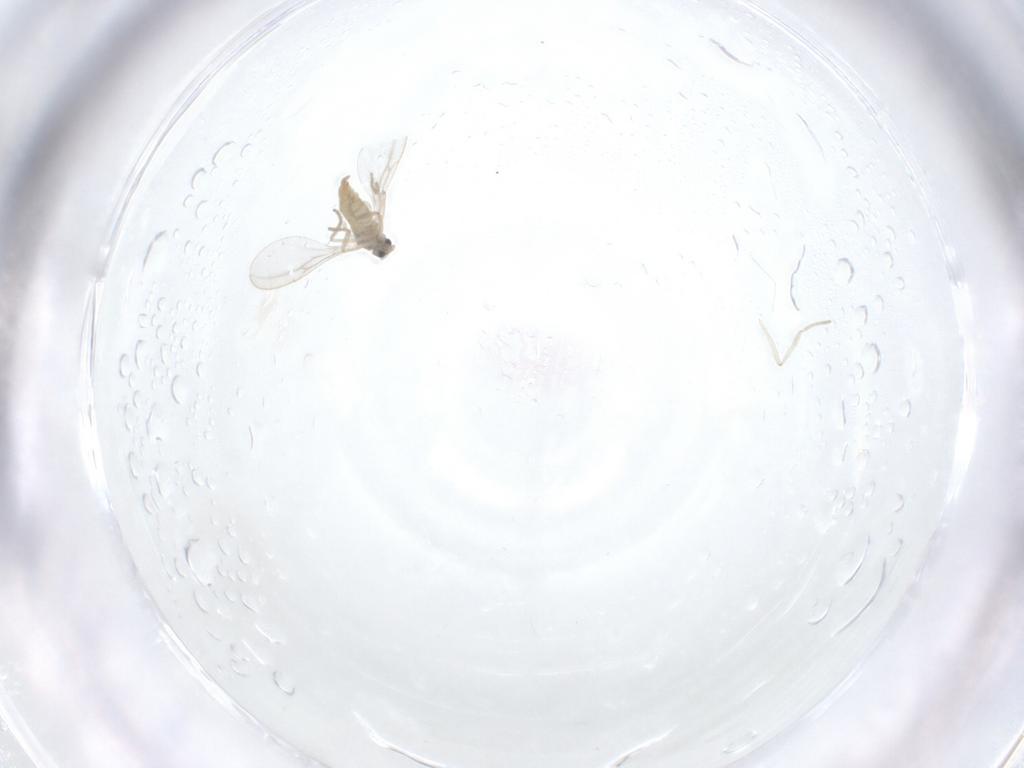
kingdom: Animalia
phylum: Arthropoda
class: Insecta
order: Diptera
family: Cecidomyiidae
